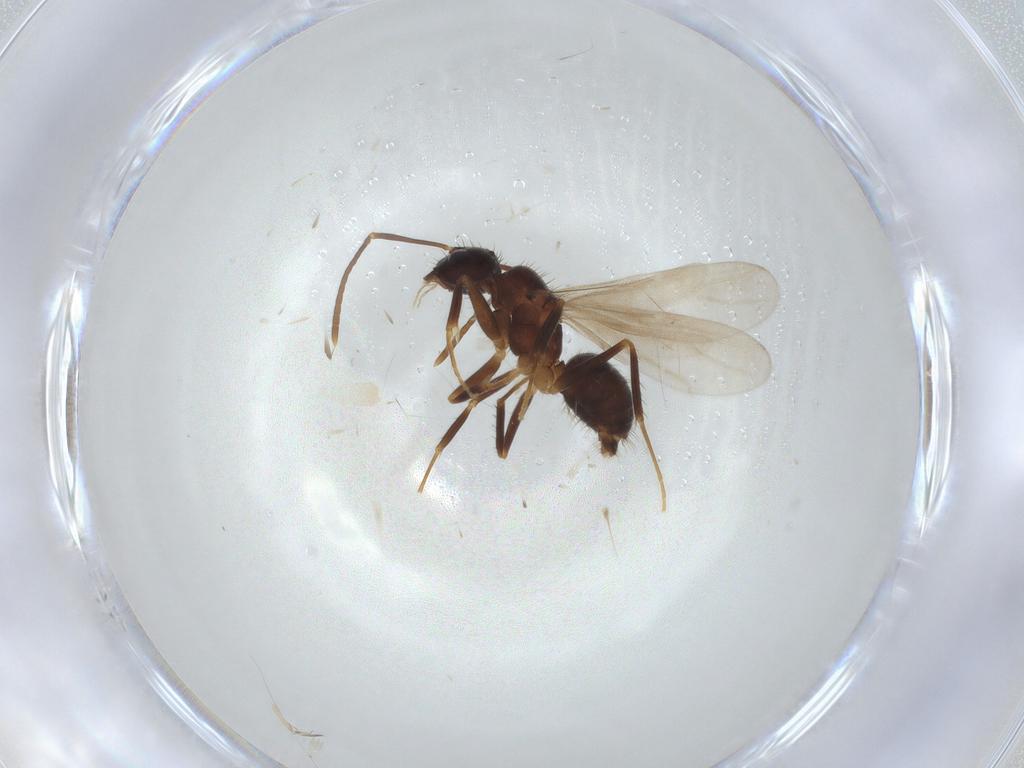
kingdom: Animalia
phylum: Arthropoda
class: Insecta
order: Hymenoptera
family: Formicidae
